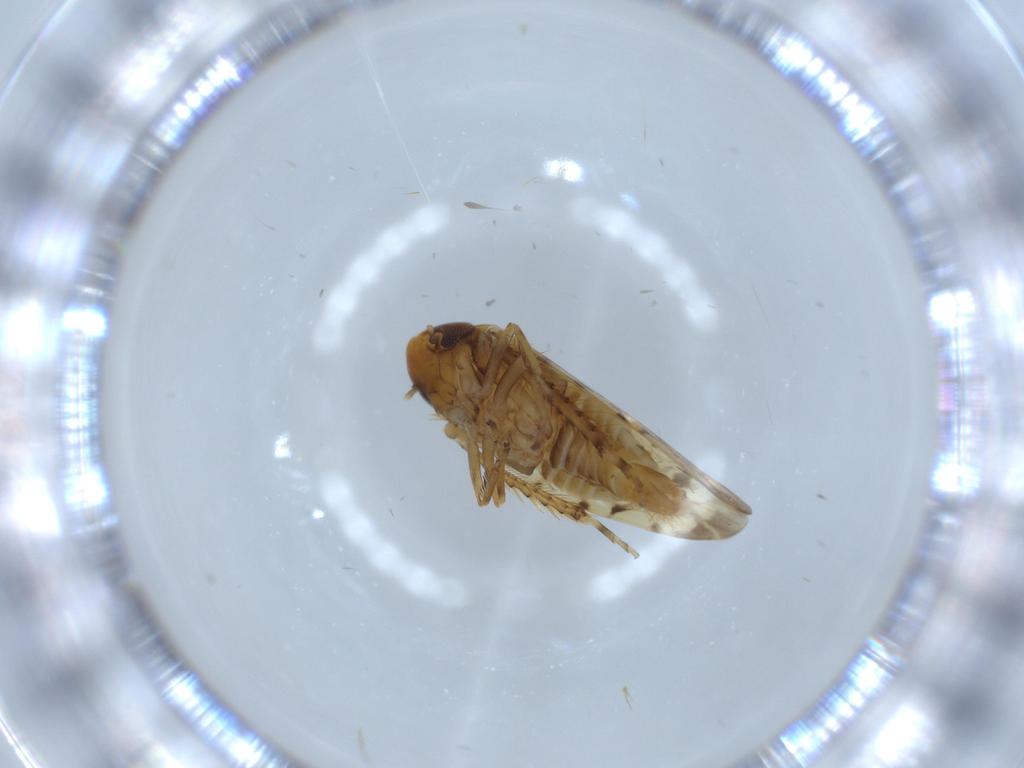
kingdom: Animalia
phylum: Arthropoda
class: Insecta
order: Hemiptera
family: Cicadellidae
